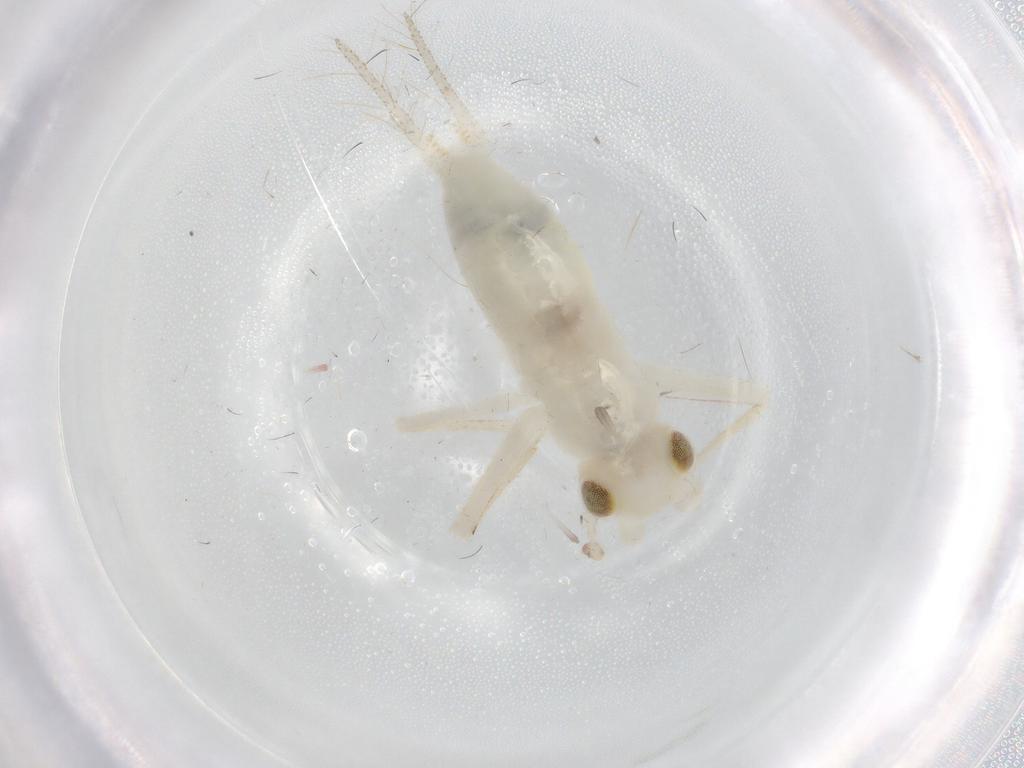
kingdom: Animalia
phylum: Arthropoda
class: Insecta
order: Orthoptera
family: Trigonidiidae
